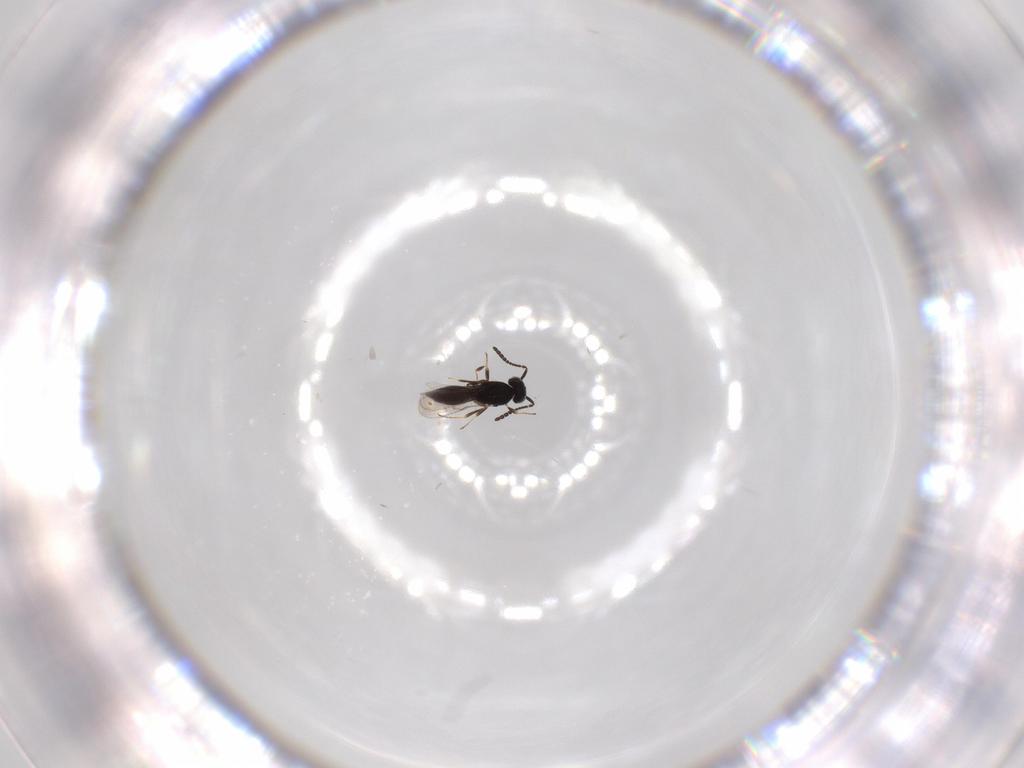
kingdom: Animalia
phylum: Arthropoda
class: Insecta
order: Hymenoptera
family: Scelionidae
